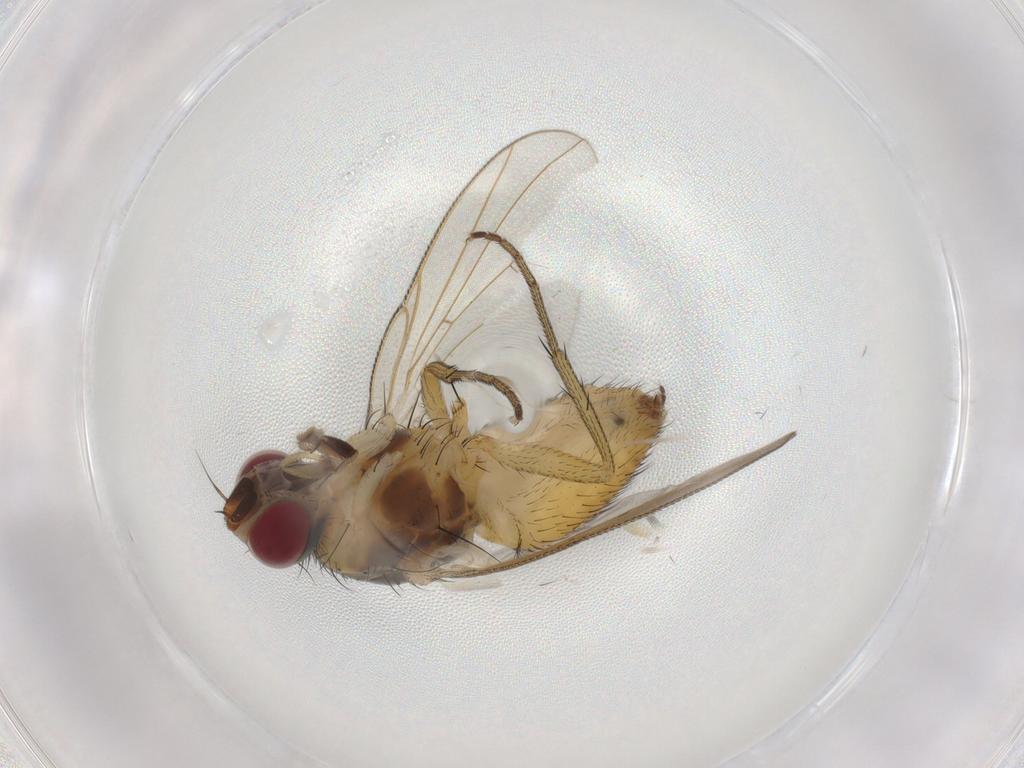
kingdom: Animalia
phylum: Arthropoda
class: Insecta
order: Diptera
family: Muscidae
